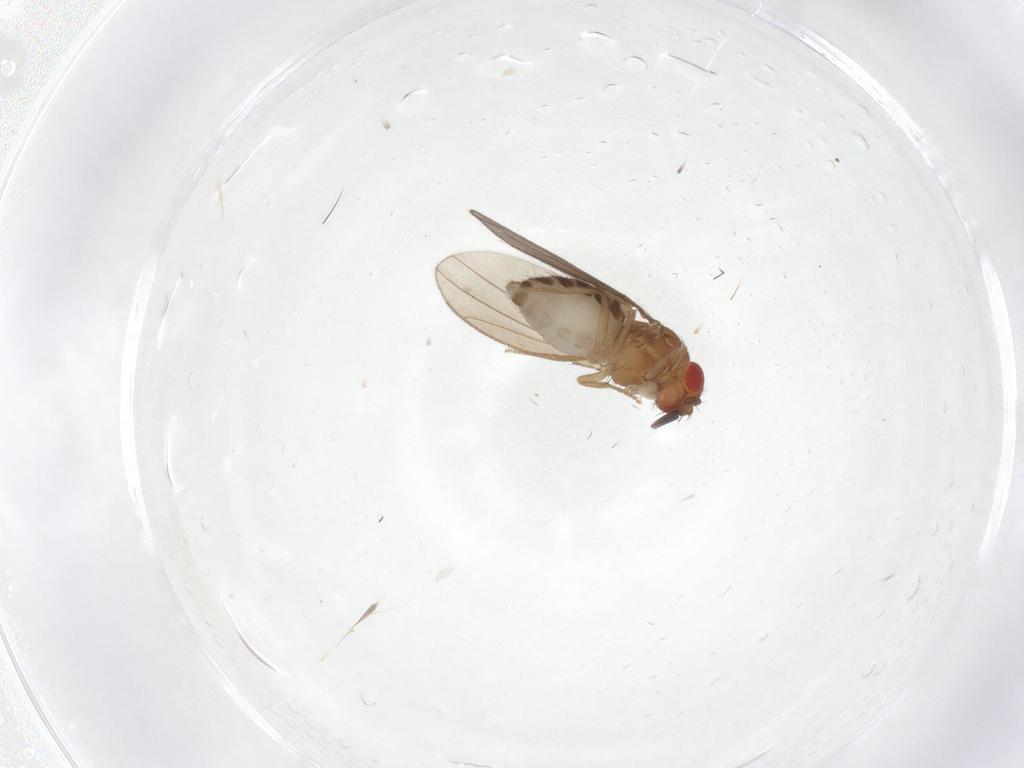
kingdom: Animalia
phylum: Arthropoda
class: Insecta
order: Diptera
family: Drosophilidae
